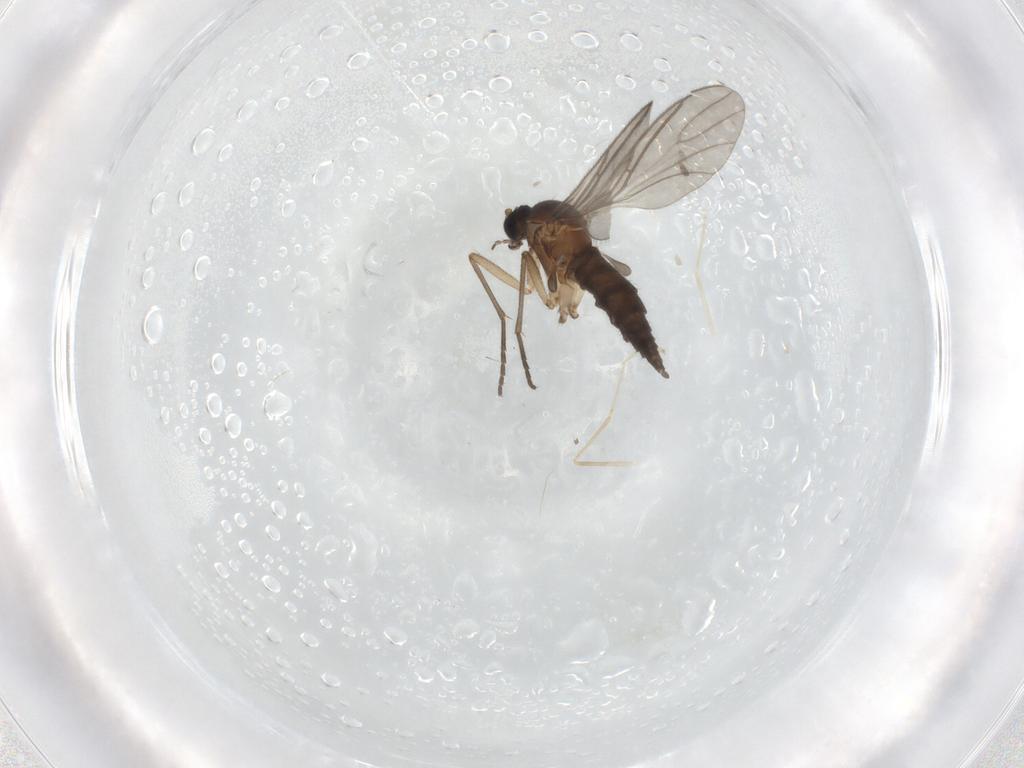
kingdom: Animalia
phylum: Arthropoda
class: Insecta
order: Diptera
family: Sciaridae
